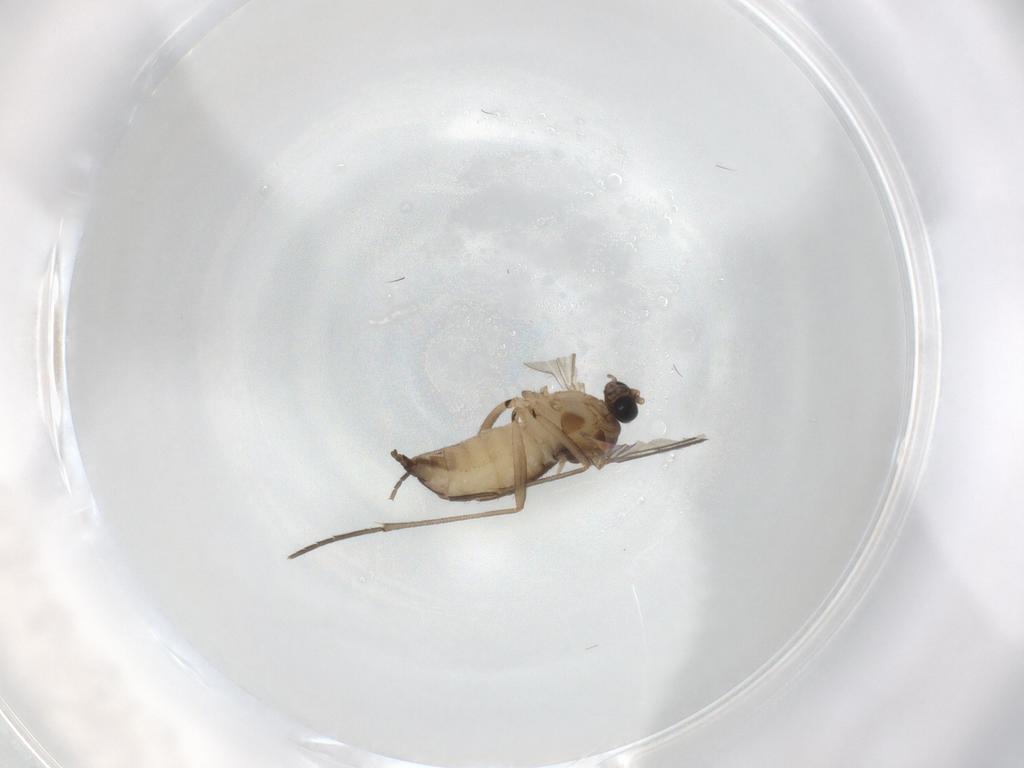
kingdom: Animalia
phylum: Arthropoda
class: Insecta
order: Diptera
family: Sciaridae
